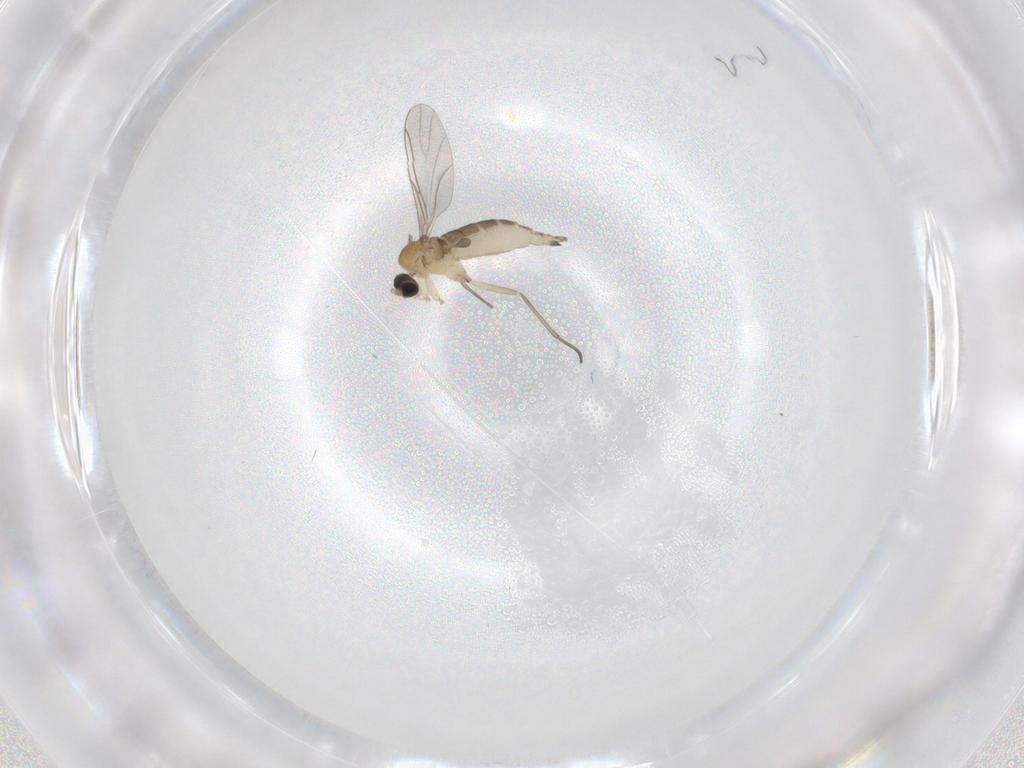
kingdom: Animalia
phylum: Arthropoda
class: Insecta
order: Diptera
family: Sciaridae
